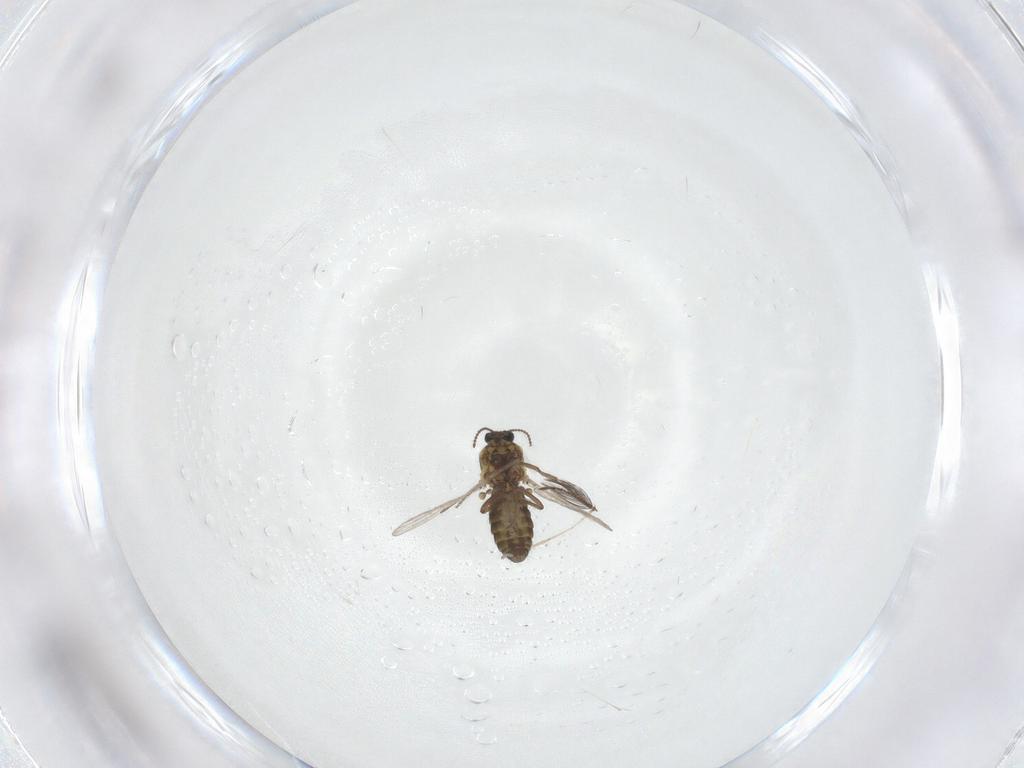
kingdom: Animalia
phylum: Arthropoda
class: Insecta
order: Diptera
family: Ceratopogonidae
